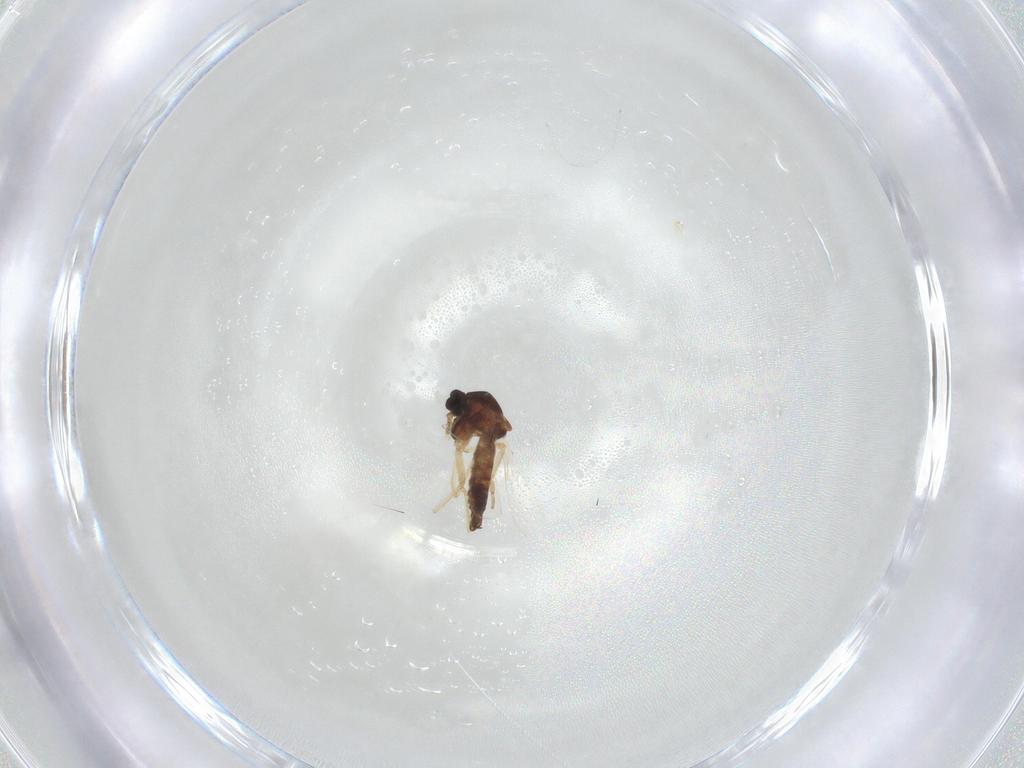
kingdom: Animalia
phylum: Arthropoda
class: Insecta
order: Diptera
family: Ceratopogonidae
